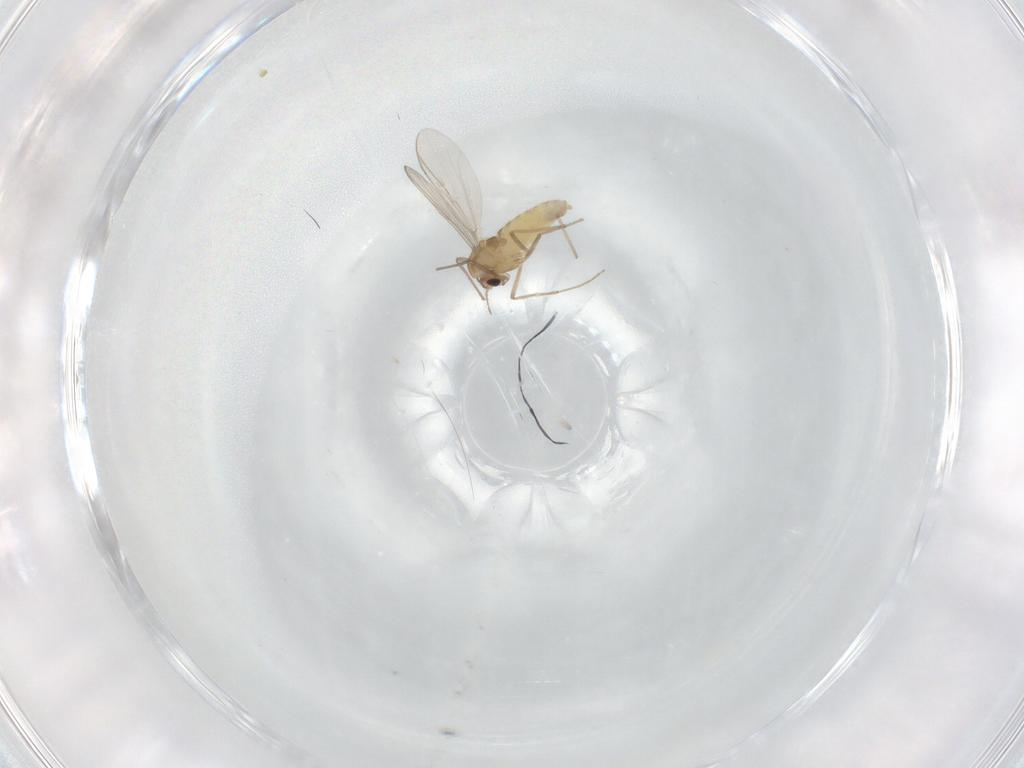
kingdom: Animalia
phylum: Arthropoda
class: Insecta
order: Diptera
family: Chironomidae
